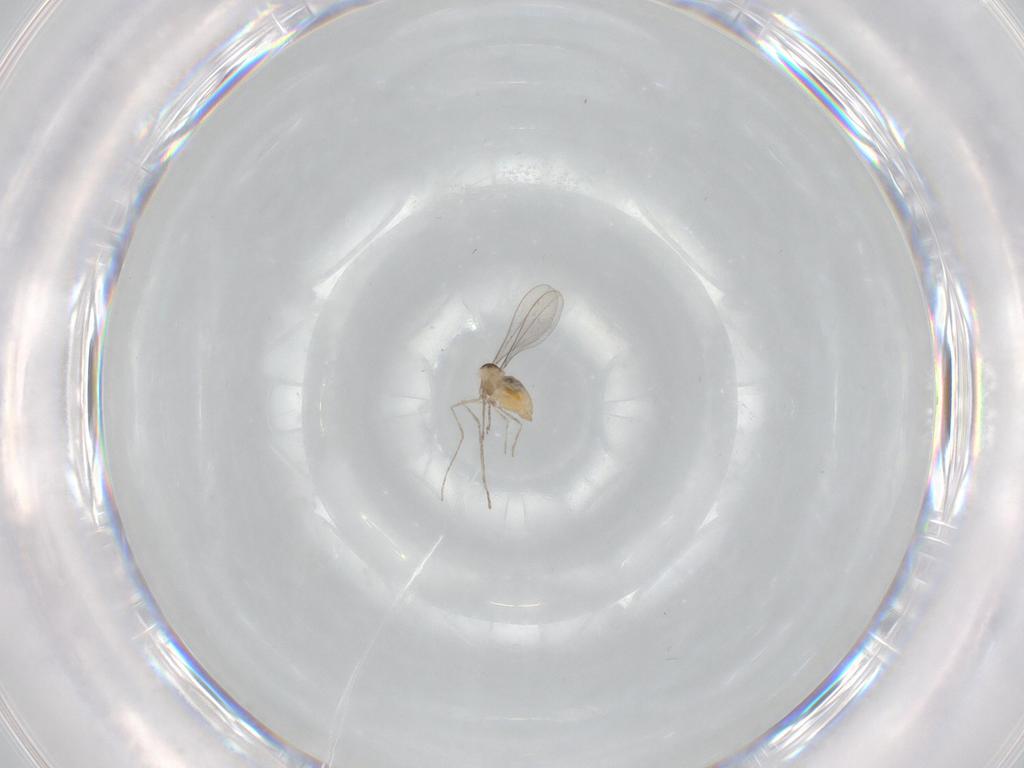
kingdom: Animalia
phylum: Arthropoda
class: Insecta
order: Diptera
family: Cecidomyiidae
